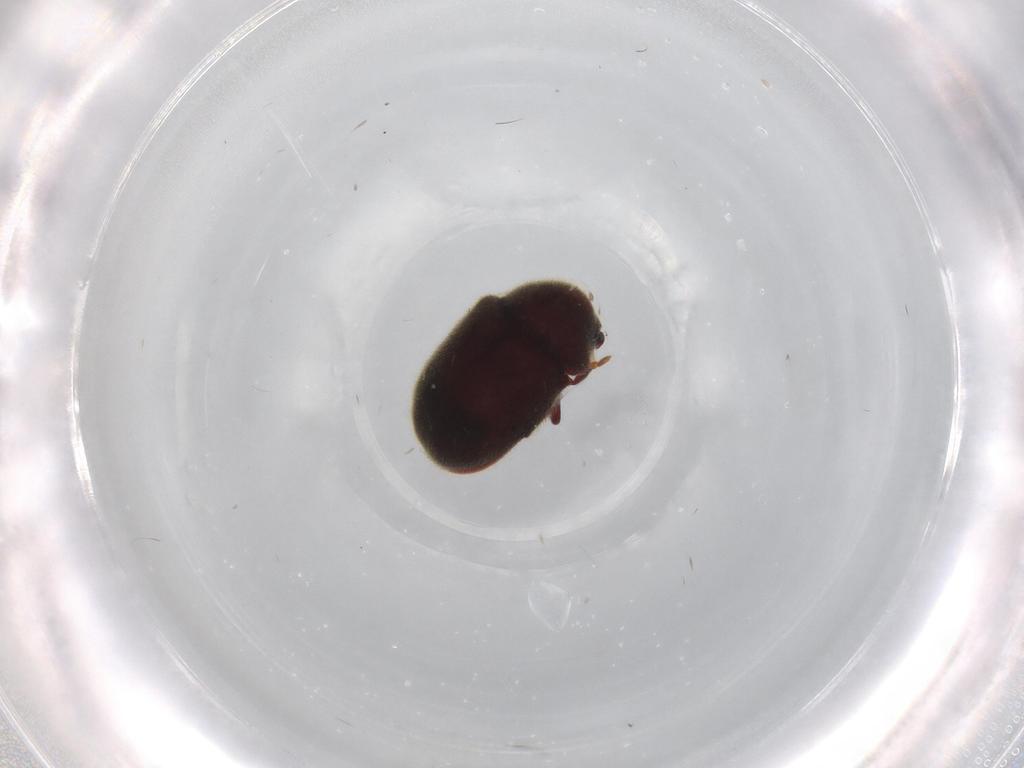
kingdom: Animalia
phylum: Arthropoda
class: Insecta
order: Coleoptera
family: Ptinidae
